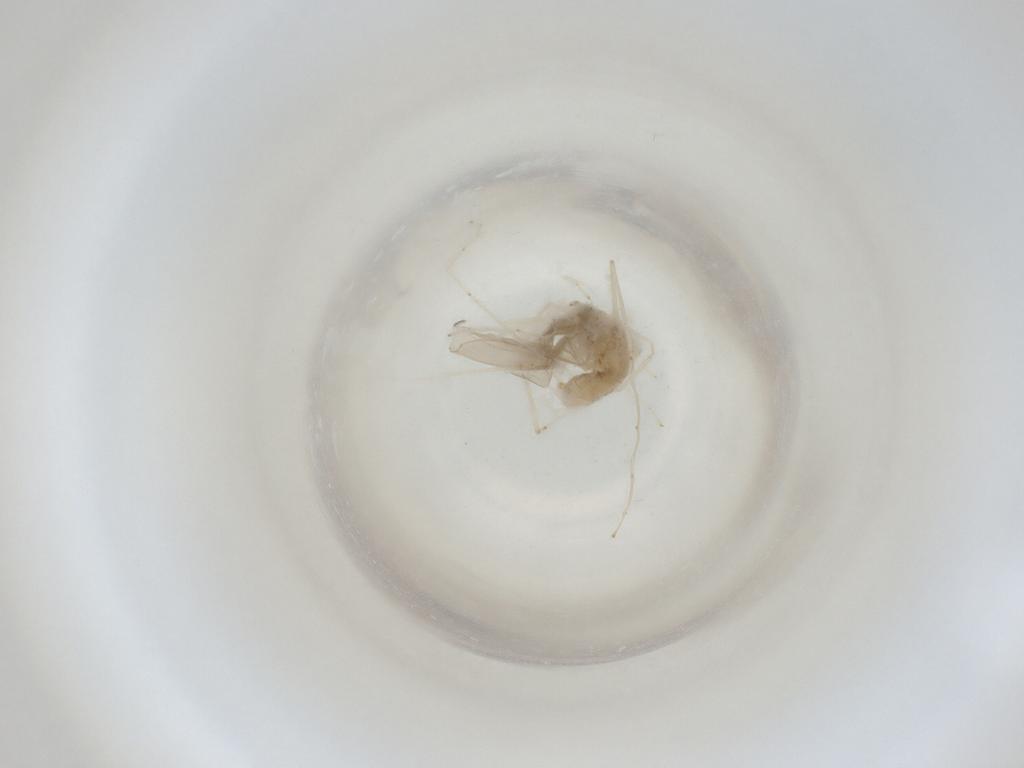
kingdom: Animalia
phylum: Arthropoda
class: Insecta
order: Diptera
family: Cecidomyiidae
